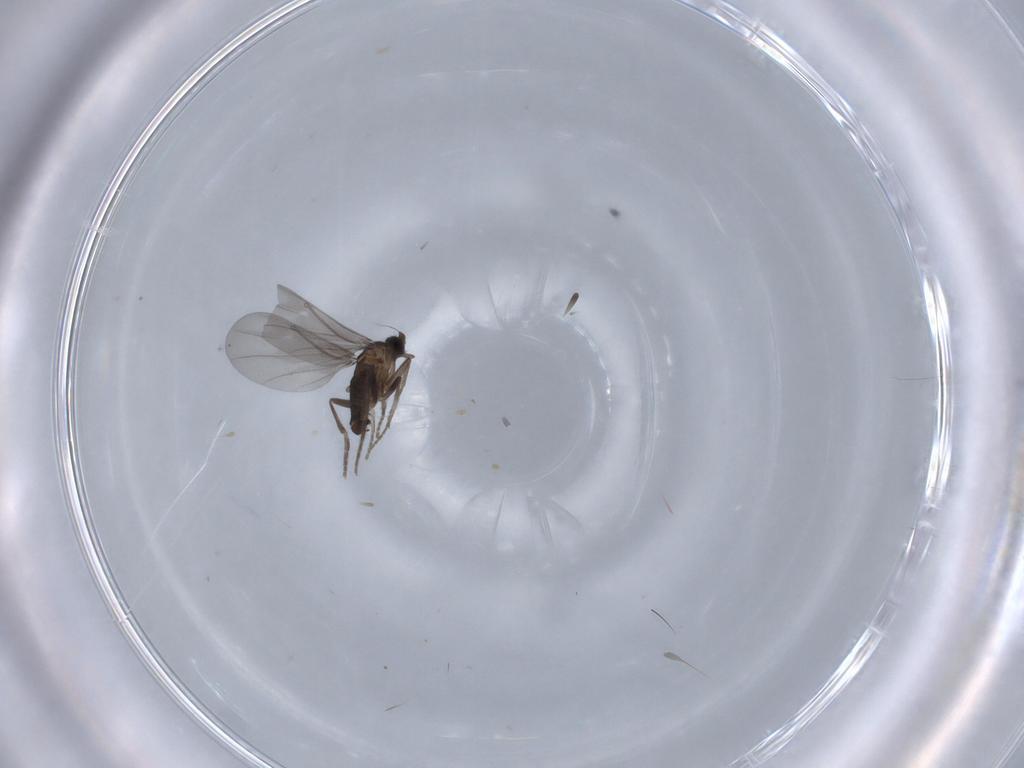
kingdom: Animalia
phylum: Arthropoda
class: Insecta
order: Diptera
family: Phoridae
